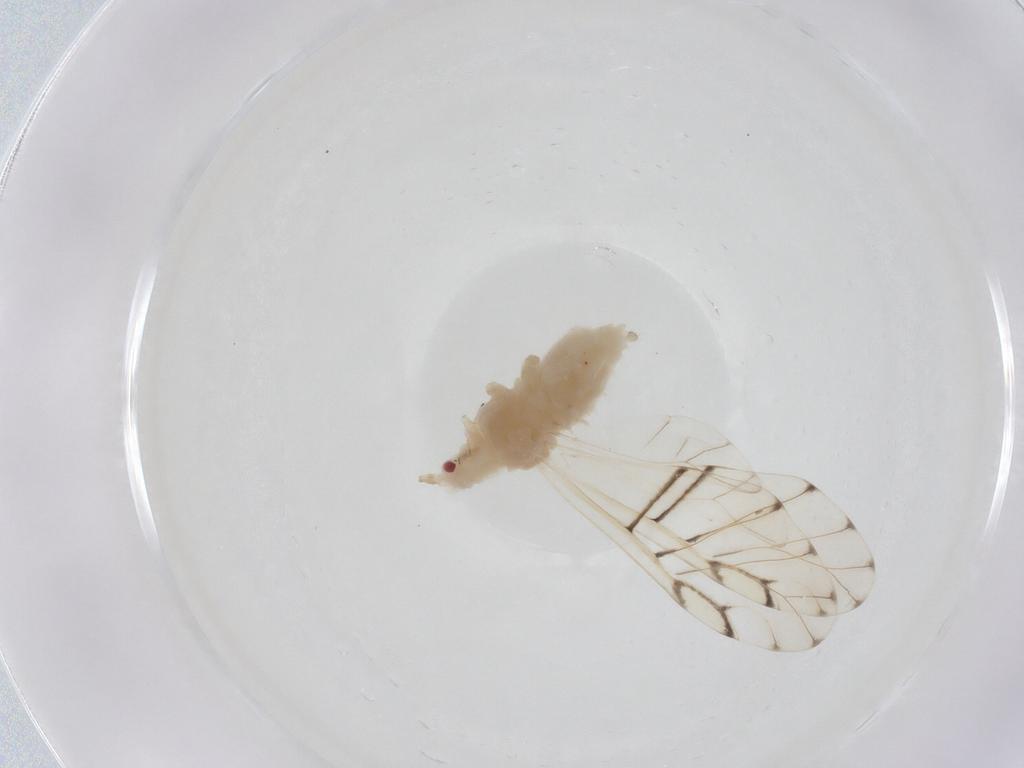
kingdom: Animalia
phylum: Arthropoda
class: Insecta
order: Hemiptera
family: Aphididae
